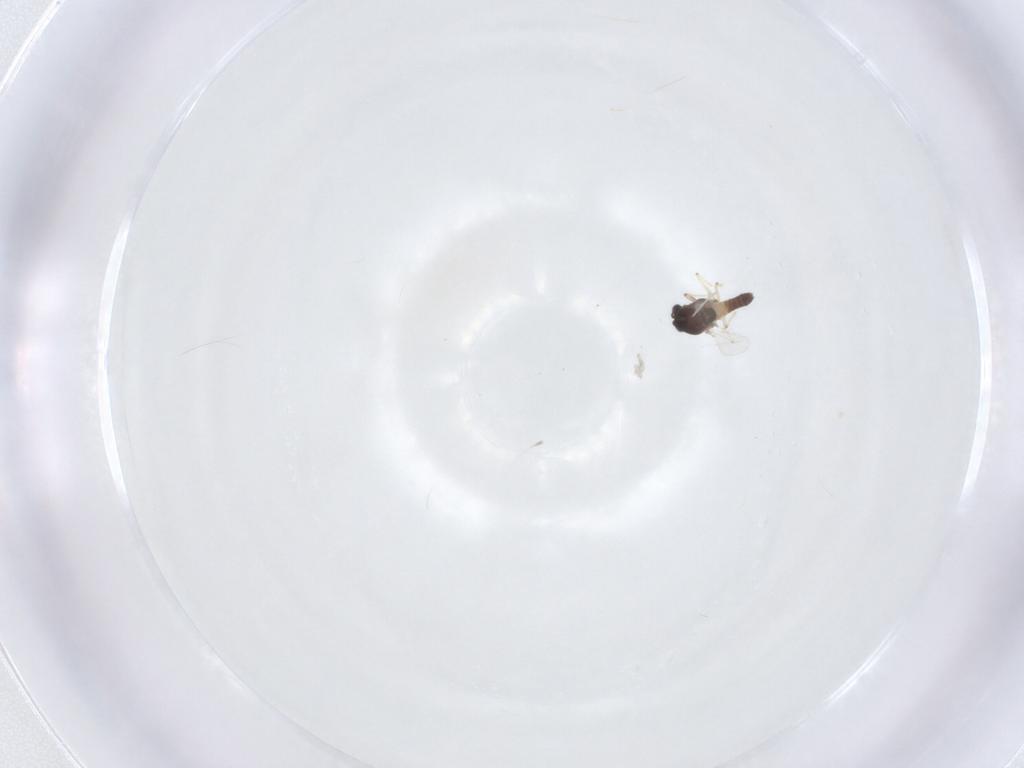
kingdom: Animalia
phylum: Arthropoda
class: Insecta
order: Diptera
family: Chironomidae
